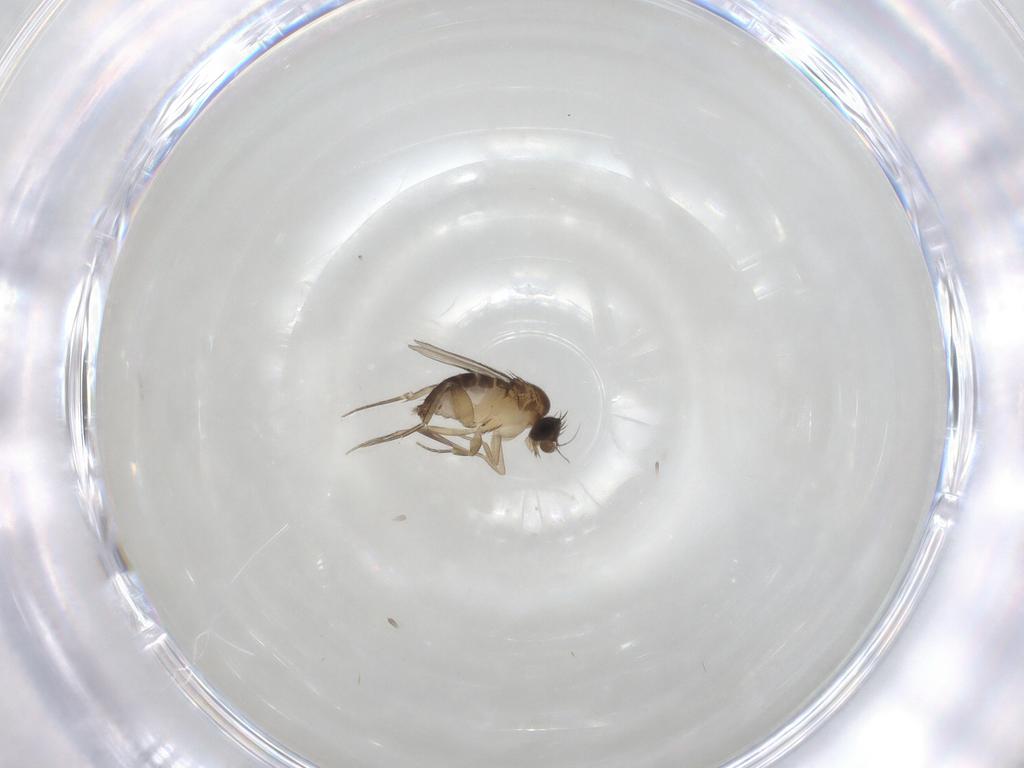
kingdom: Animalia
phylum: Arthropoda
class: Insecta
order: Diptera
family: Phoridae
